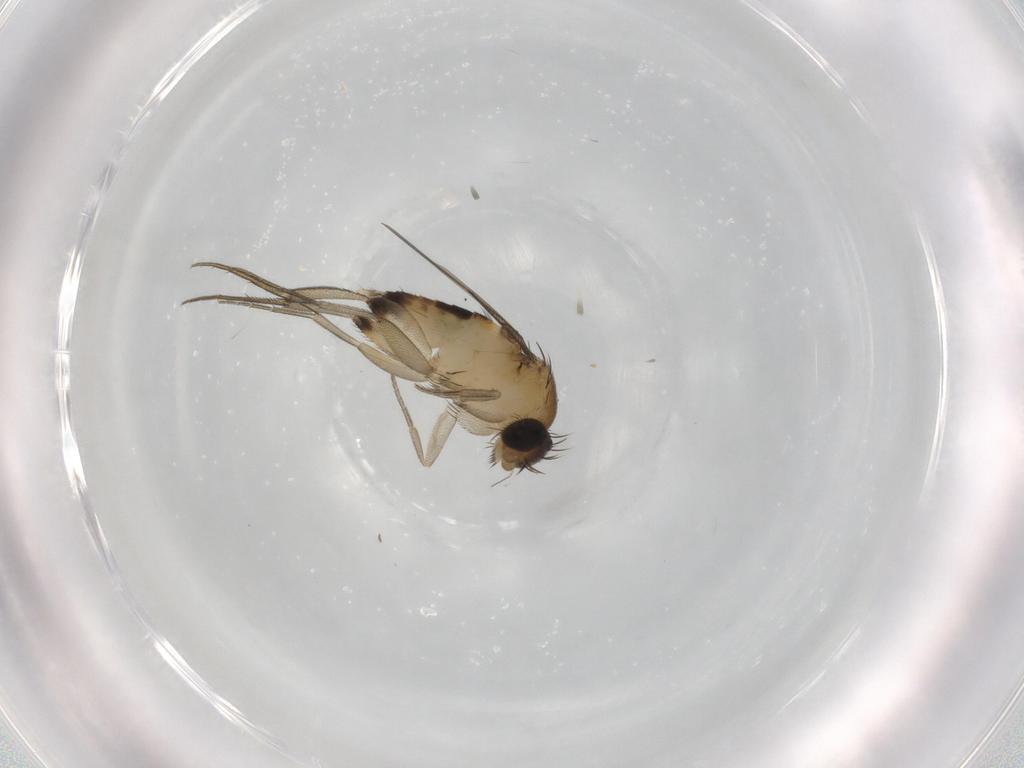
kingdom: Animalia
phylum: Arthropoda
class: Insecta
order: Diptera
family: Phoridae
